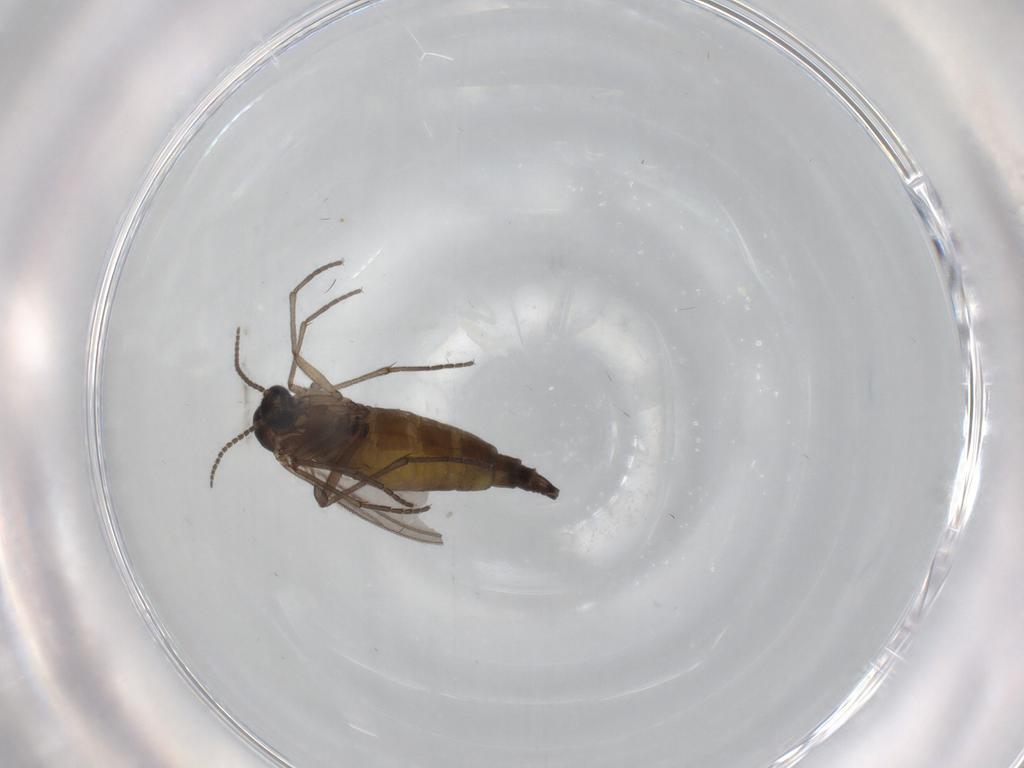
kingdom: Animalia
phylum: Arthropoda
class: Insecta
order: Diptera
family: Sciaridae
